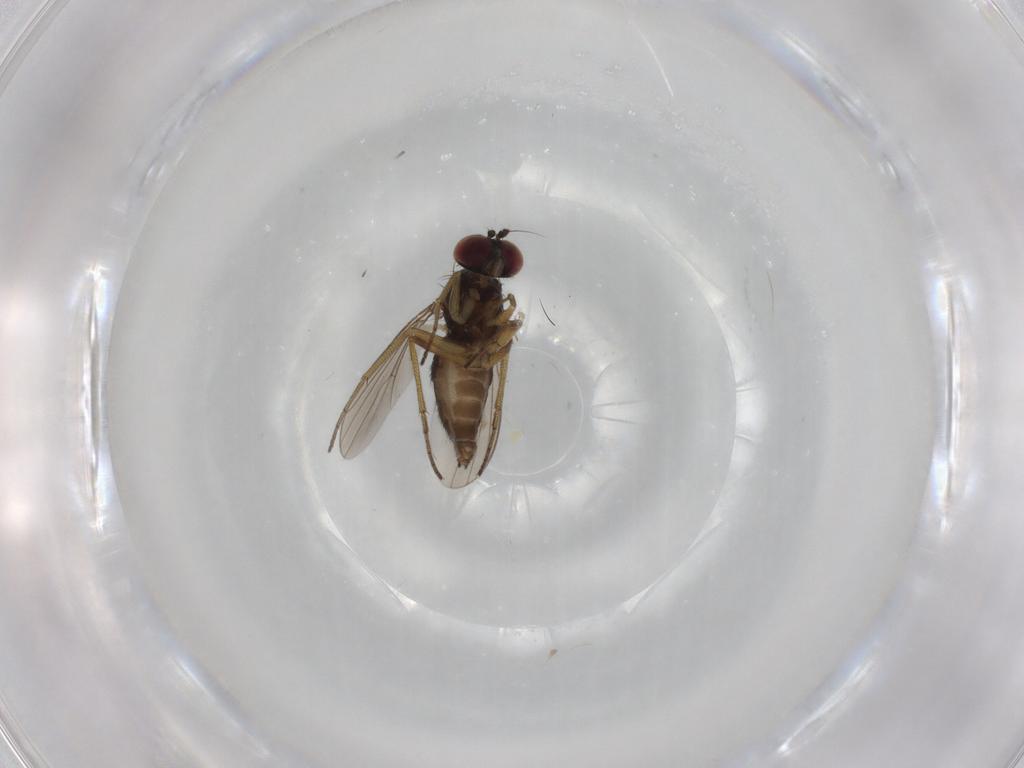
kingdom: Animalia
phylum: Arthropoda
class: Insecta
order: Diptera
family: Dolichopodidae
